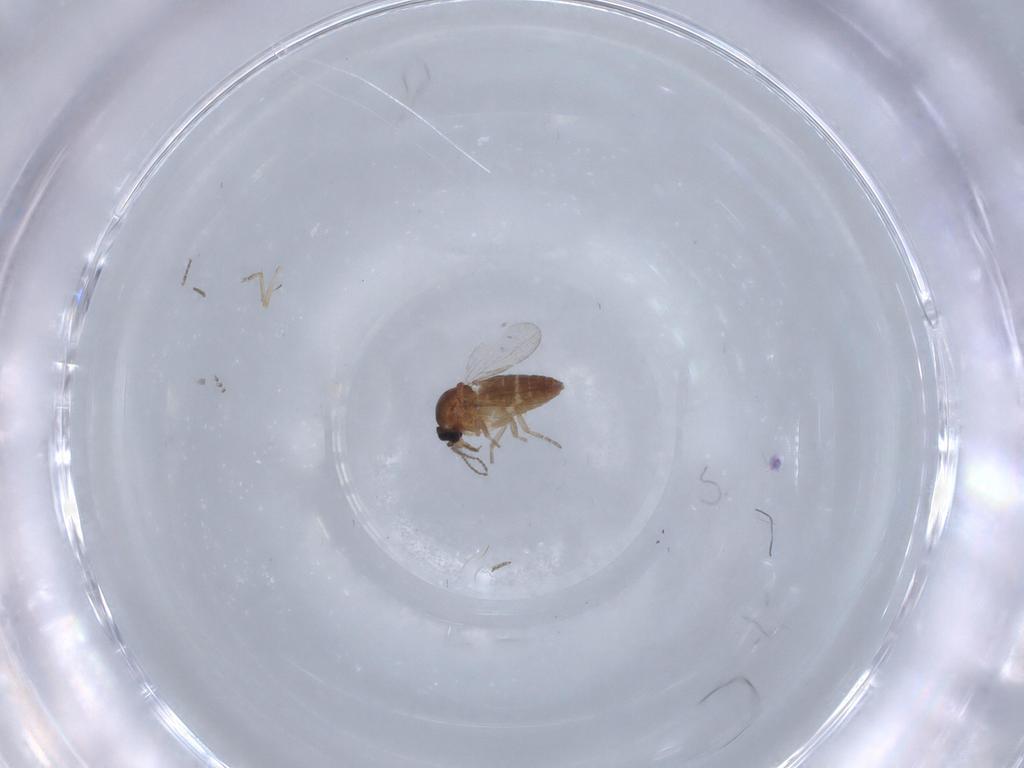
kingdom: Animalia
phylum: Arthropoda
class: Insecta
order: Diptera
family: Ceratopogonidae
